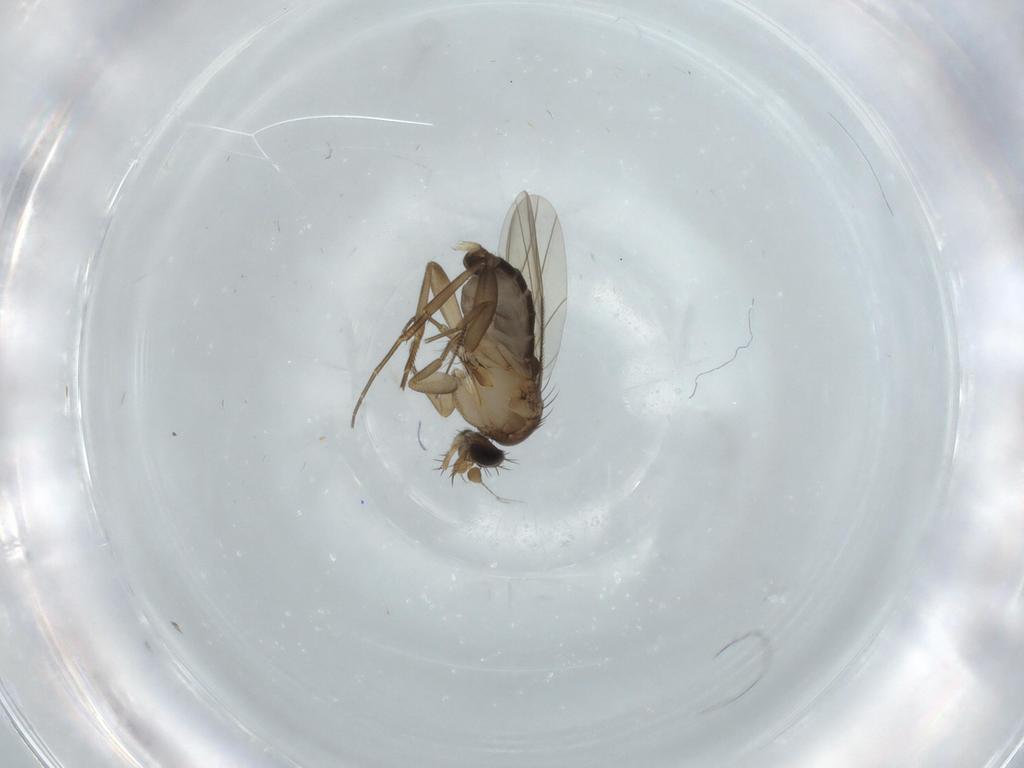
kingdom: Animalia
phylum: Arthropoda
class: Insecta
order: Diptera
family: Phoridae
